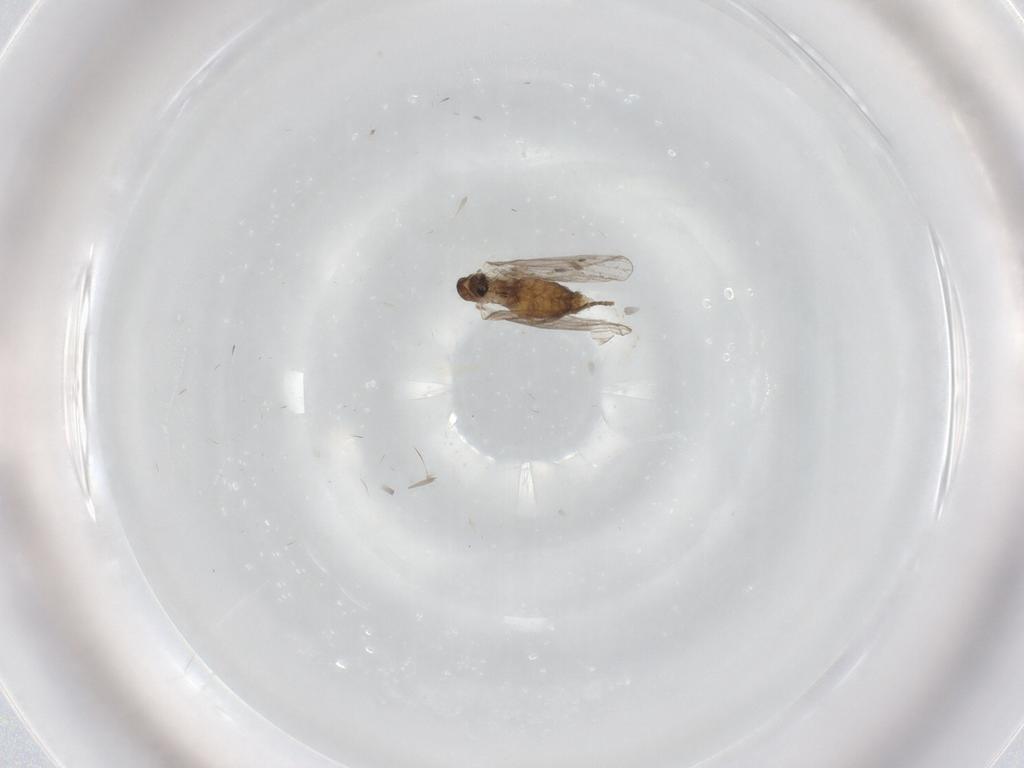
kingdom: Animalia
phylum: Arthropoda
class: Insecta
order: Diptera
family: Cecidomyiidae
